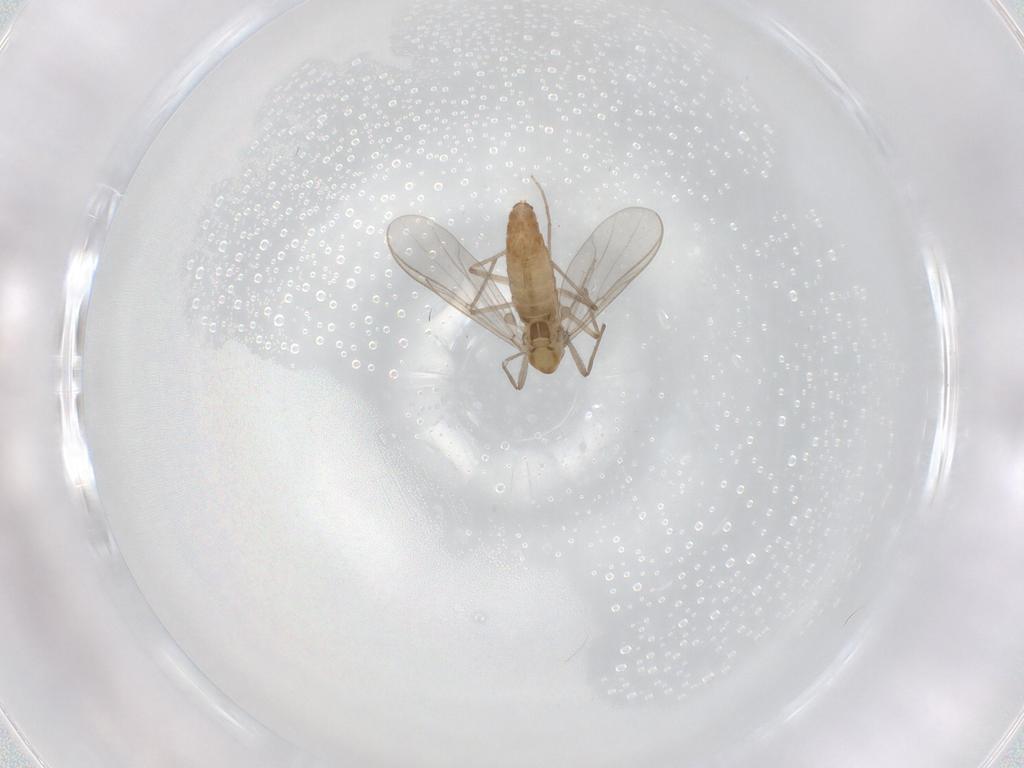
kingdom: Animalia
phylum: Arthropoda
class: Insecta
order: Diptera
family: Chironomidae
